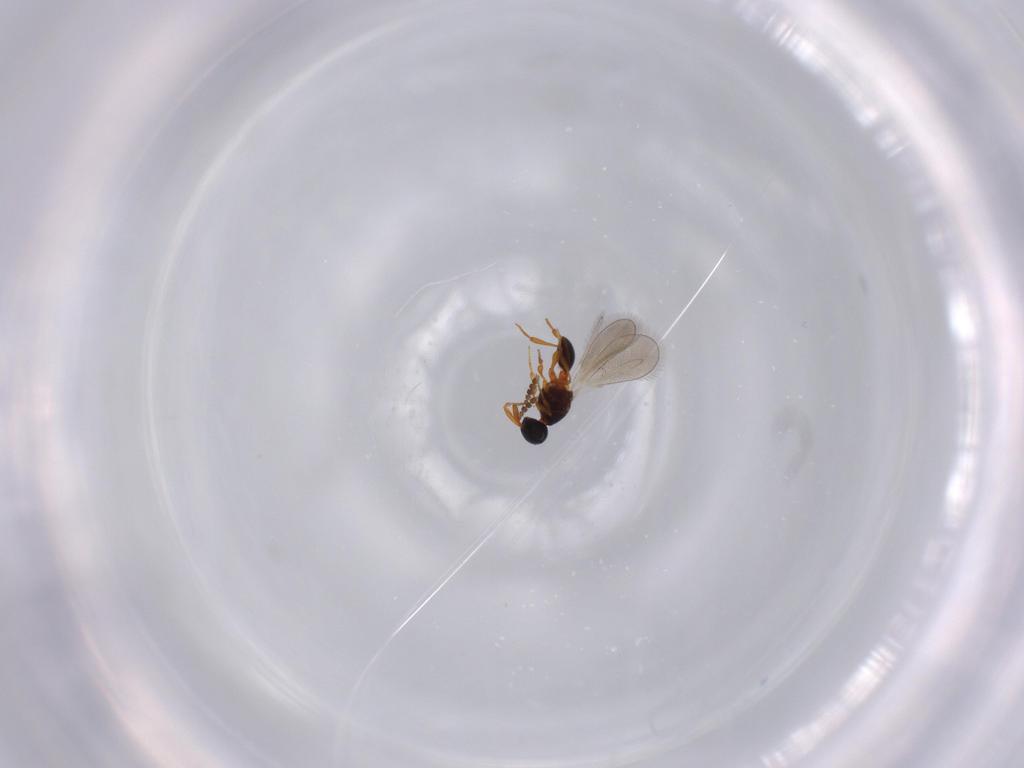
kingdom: Animalia
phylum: Arthropoda
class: Insecta
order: Hymenoptera
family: Platygastridae
